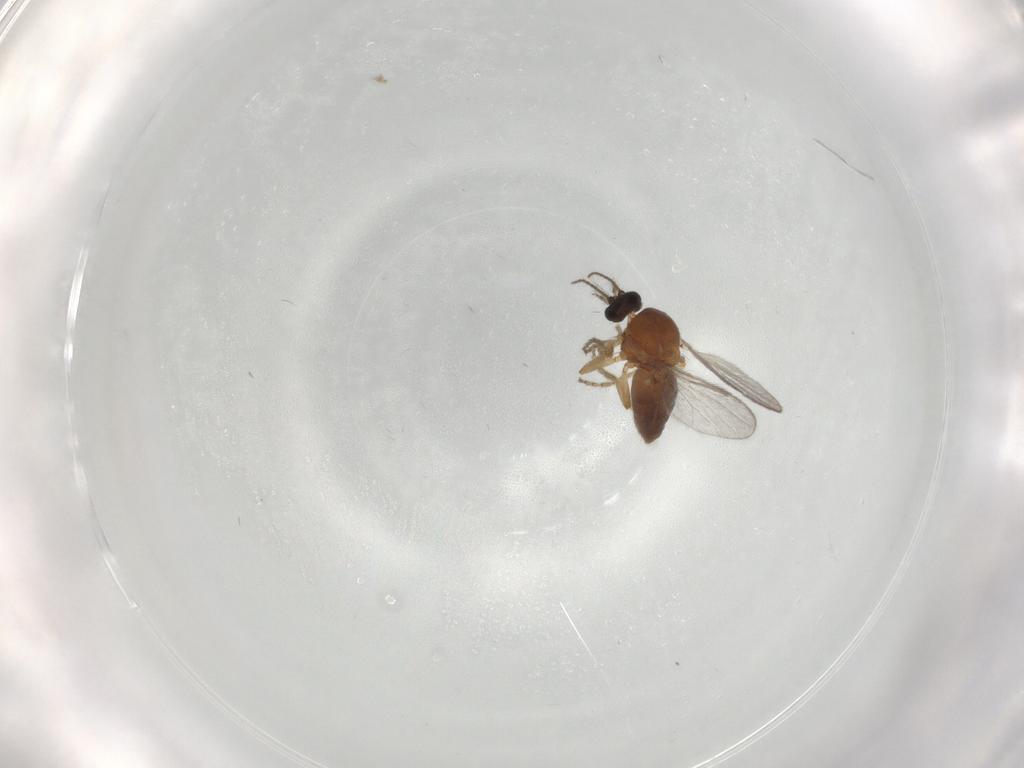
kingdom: Animalia
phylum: Arthropoda
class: Insecta
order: Diptera
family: Ceratopogonidae
